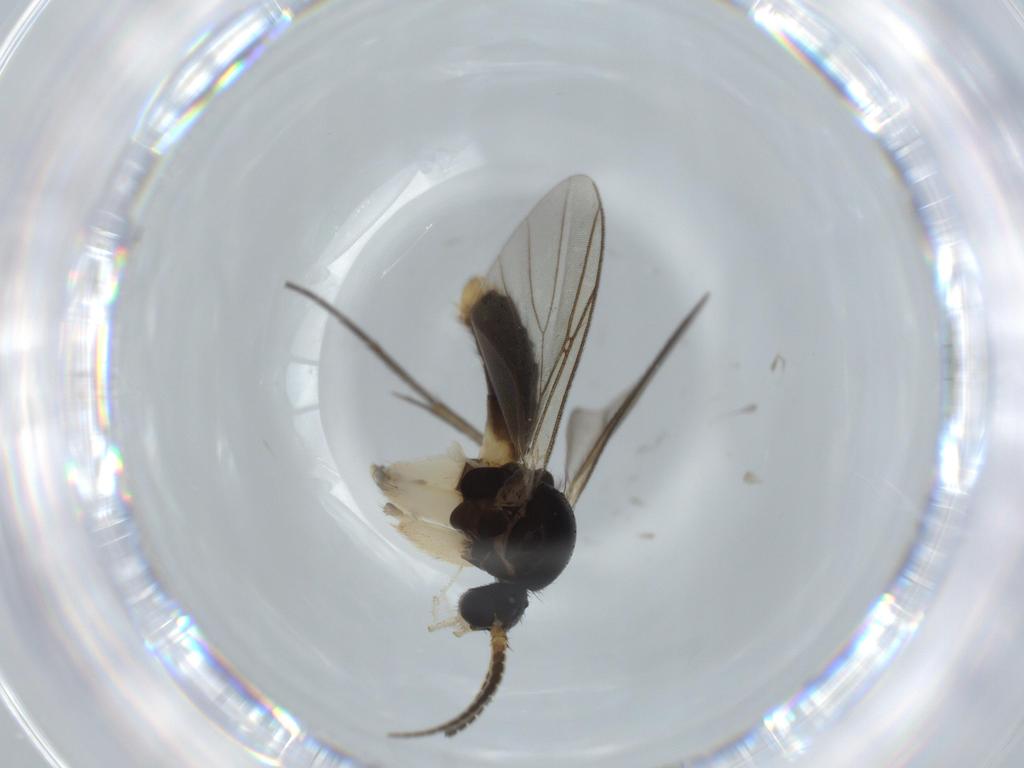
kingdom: Animalia
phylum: Arthropoda
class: Insecta
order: Diptera
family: Sciaridae
